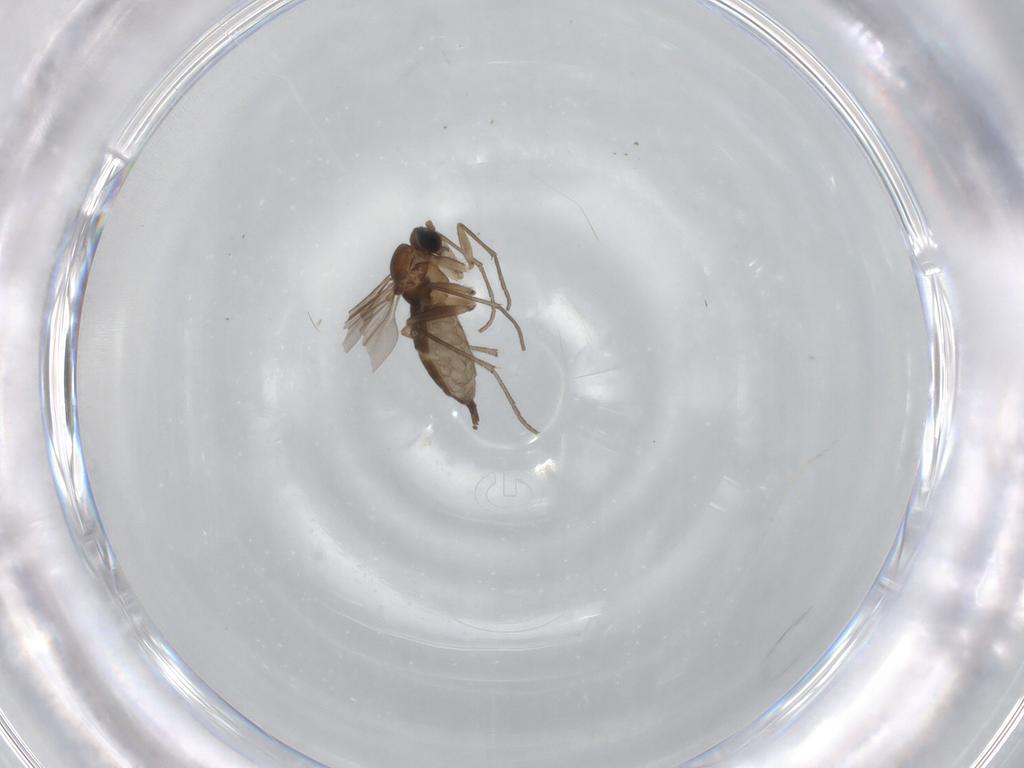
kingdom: Animalia
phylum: Arthropoda
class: Insecta
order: Diptera
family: Sciaridae
